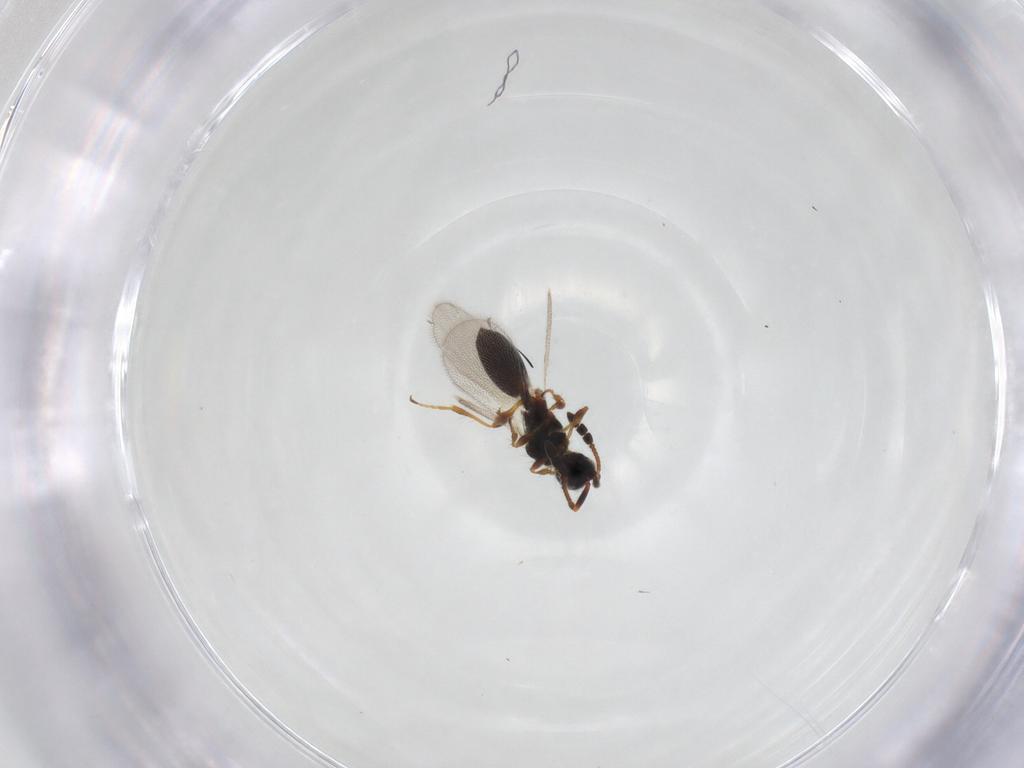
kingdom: Animalia
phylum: Arthropoda
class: Insecta
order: Hymenoptera
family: Diapriidae
